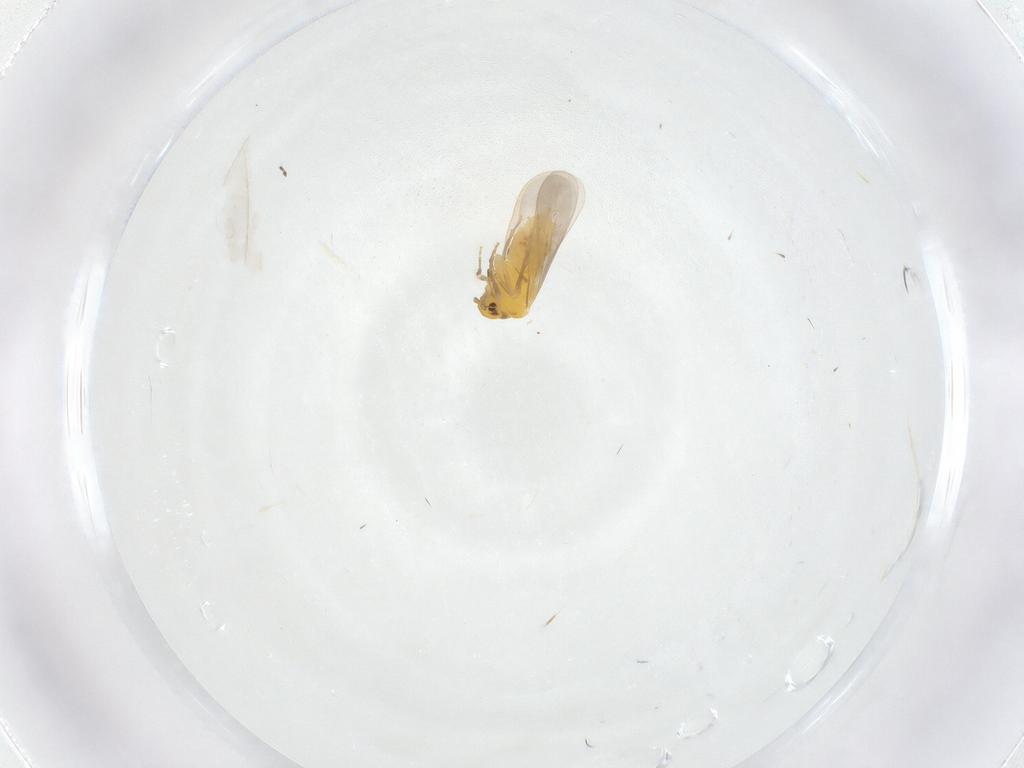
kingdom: Animalia
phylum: Arthropoda
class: Insecta
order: Hemiptera
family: Aleyrodidae
